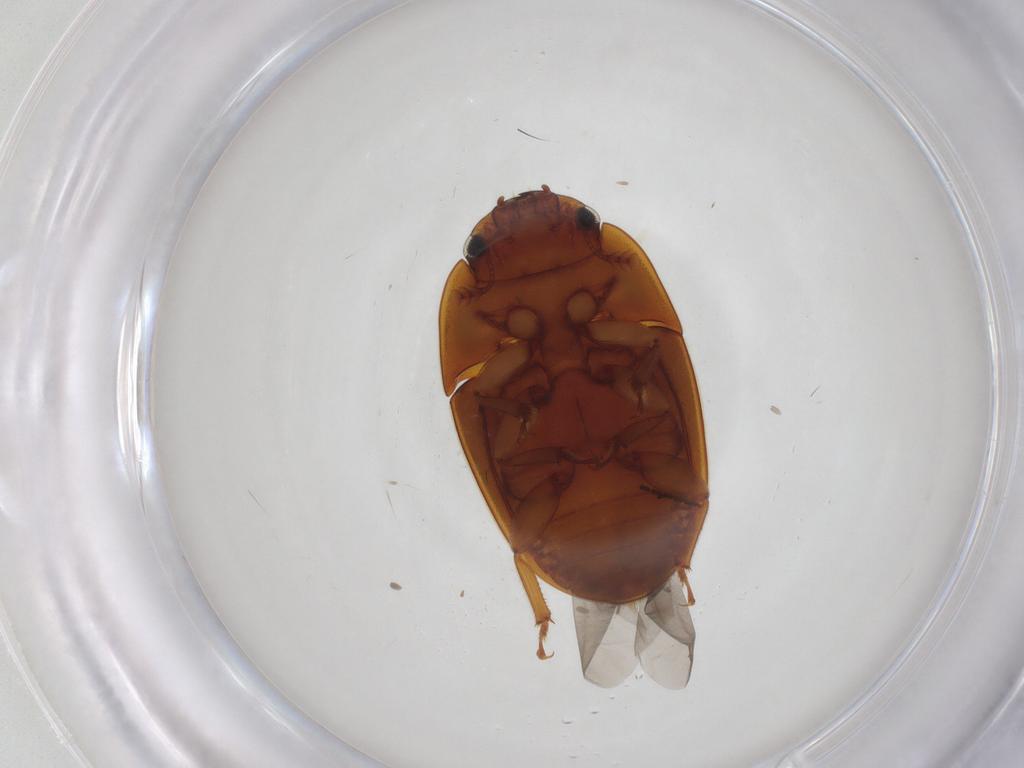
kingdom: Animalia
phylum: Arthropoda
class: Insecta
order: Coleoptera
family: Nitidulidae
